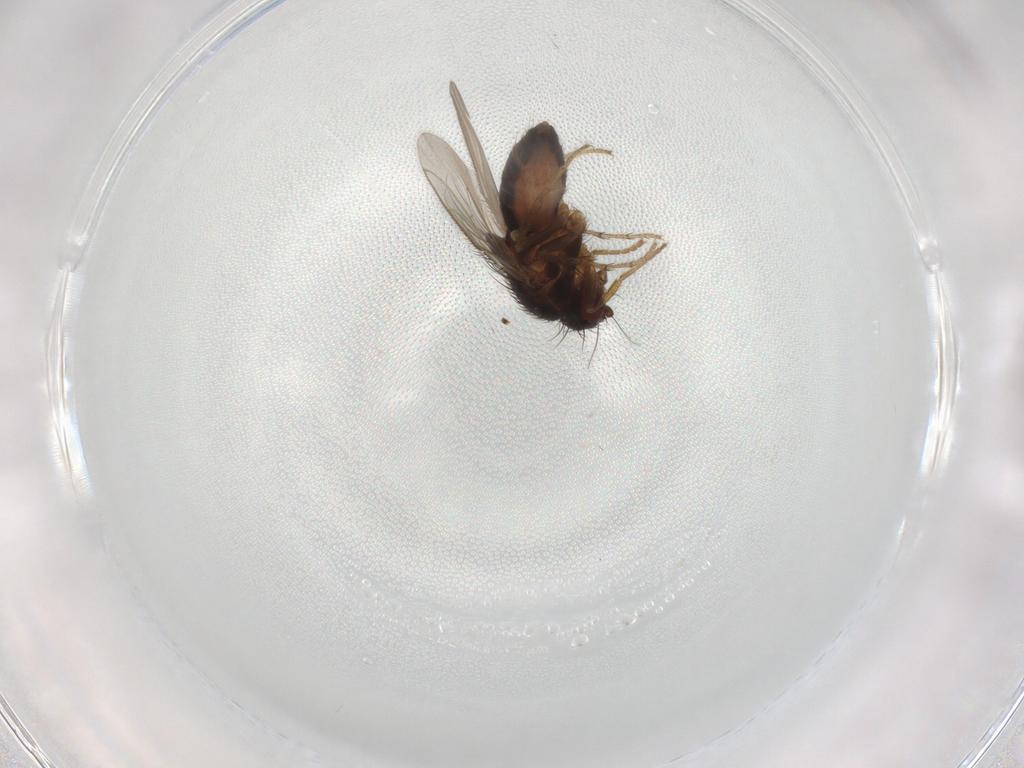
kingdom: Animalia
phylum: Arthropoda
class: Insecta
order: Diptera
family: Sphaeroceridae
